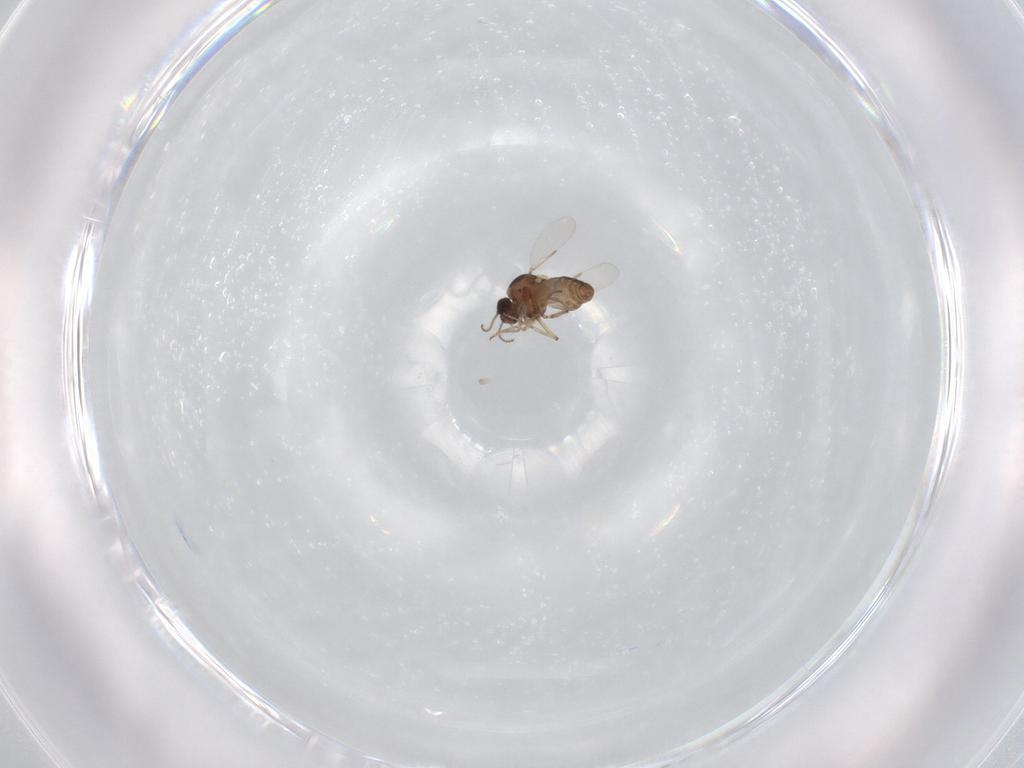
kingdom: Animalia
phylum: Arthropoda
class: Insecta
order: Diptera
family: Ceratopogonidae
